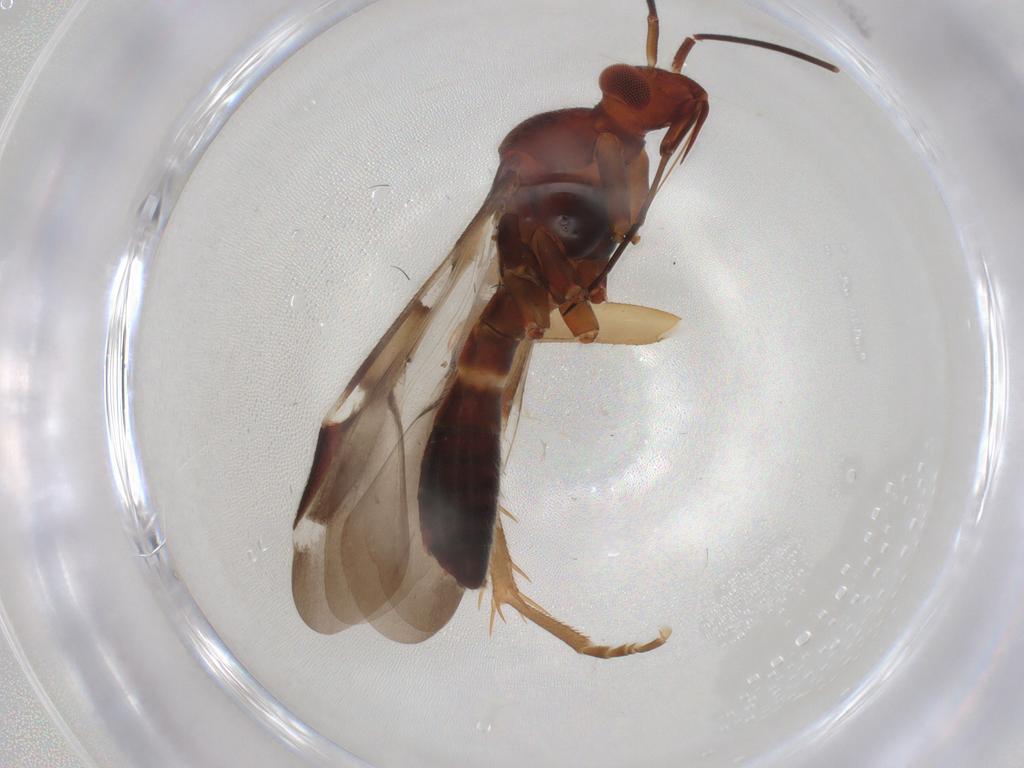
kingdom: Animalia
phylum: Arthropoda
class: Insecta
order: Hemiptera
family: Miridae
